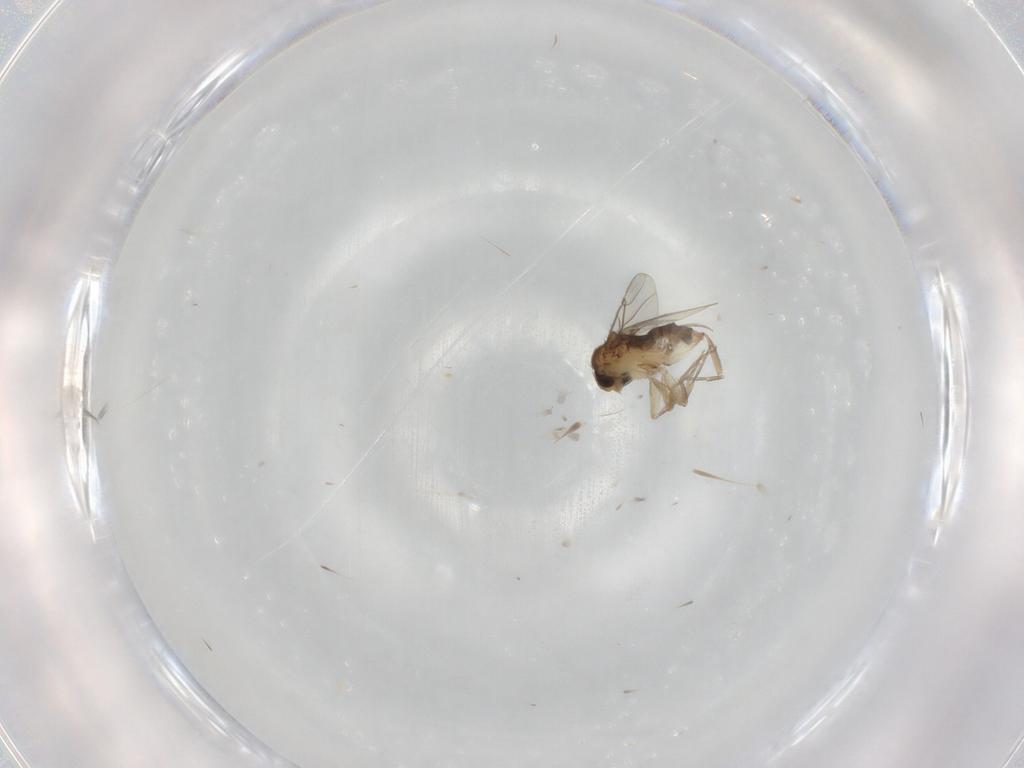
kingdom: Animalia
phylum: Arthropoda
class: Insecta
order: Diptera
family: Phoridae
